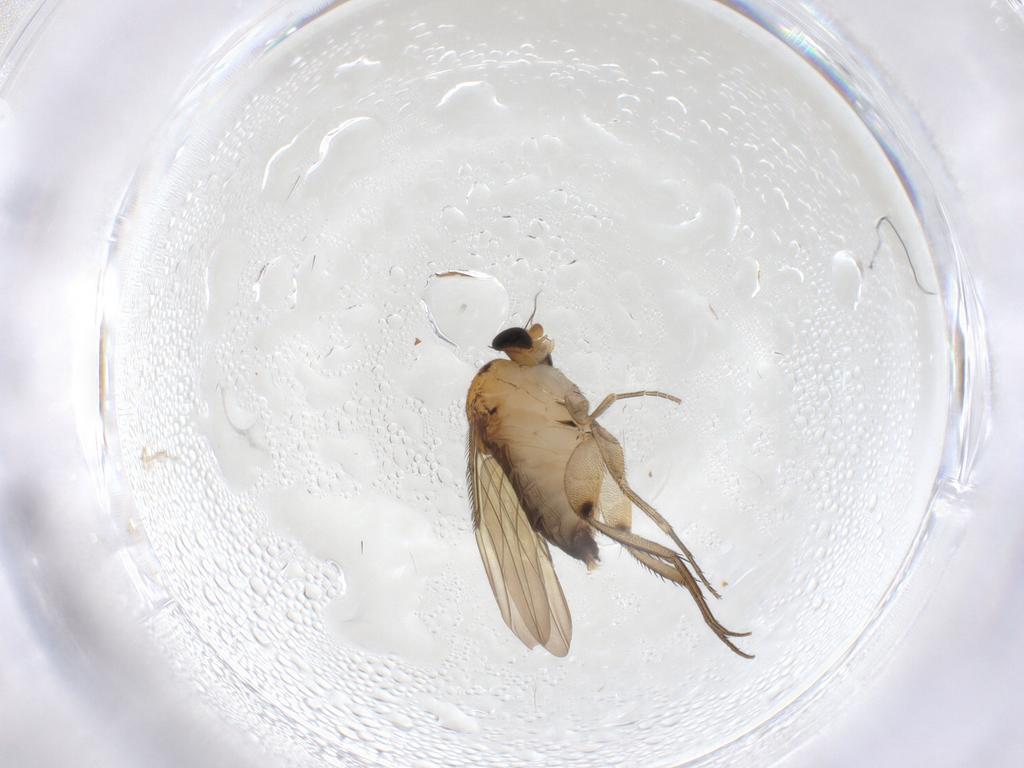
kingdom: Animalia
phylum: Arthropoda
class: Insecta
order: Diptera
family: Phoridae
